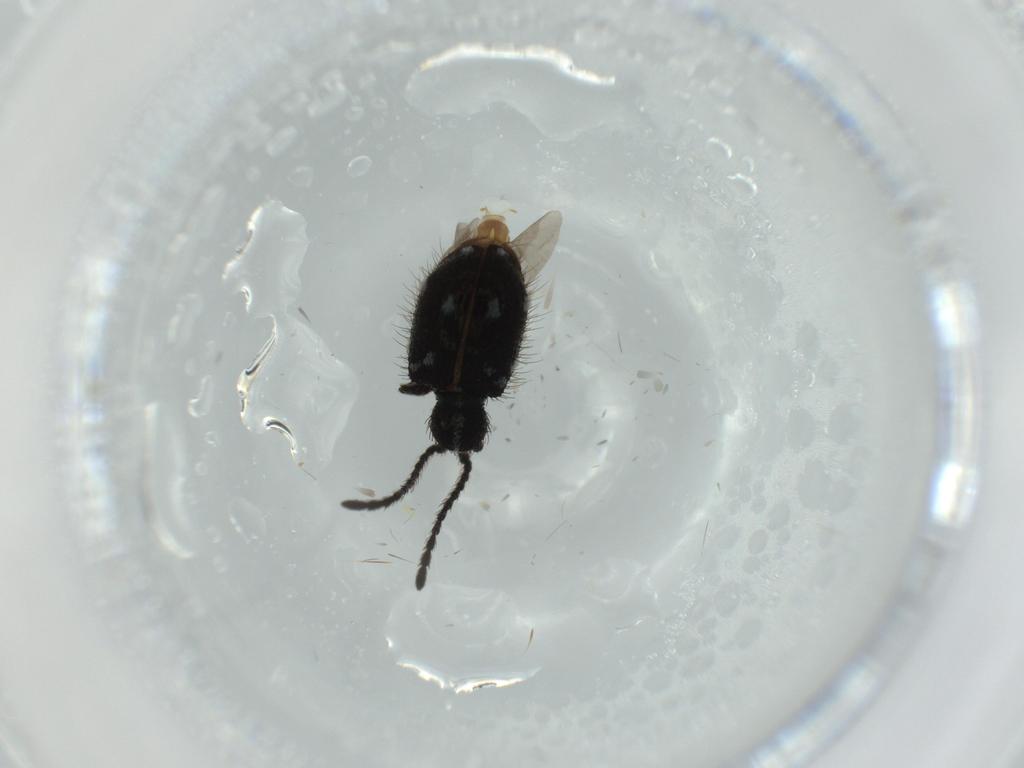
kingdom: Animalia
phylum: Arthropoda
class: Insecta
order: Coleoptera
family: Ptinidae
